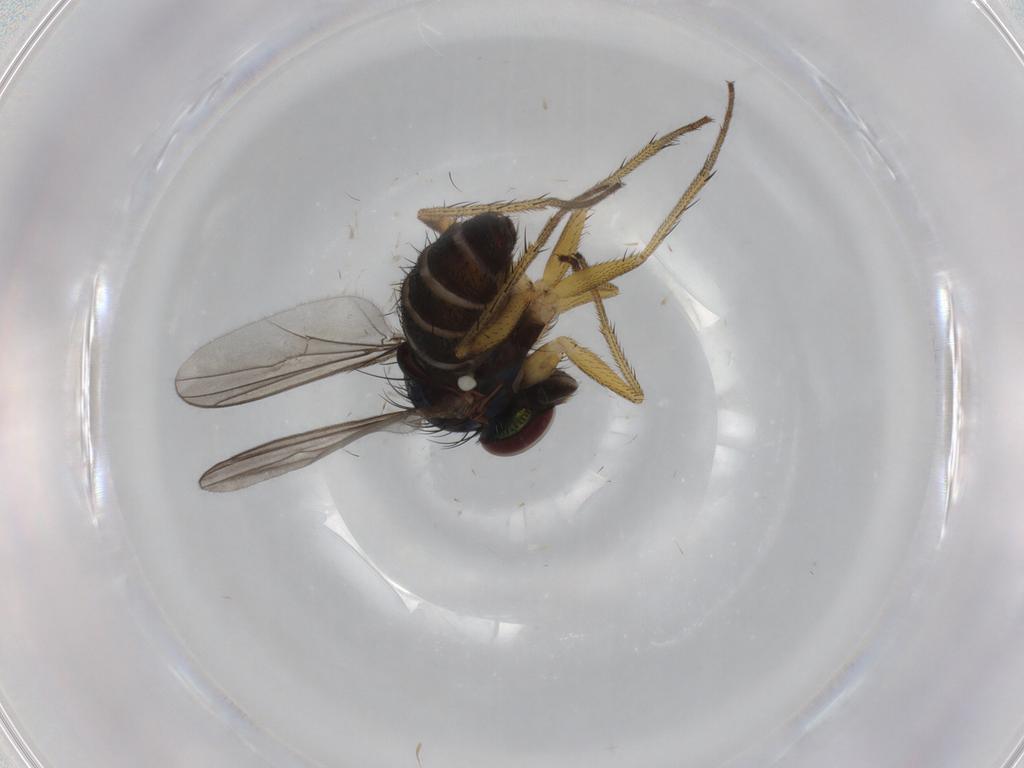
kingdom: Animalia
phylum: Arthropoda
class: Insecta
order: Diptera
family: Dolichopodidae
